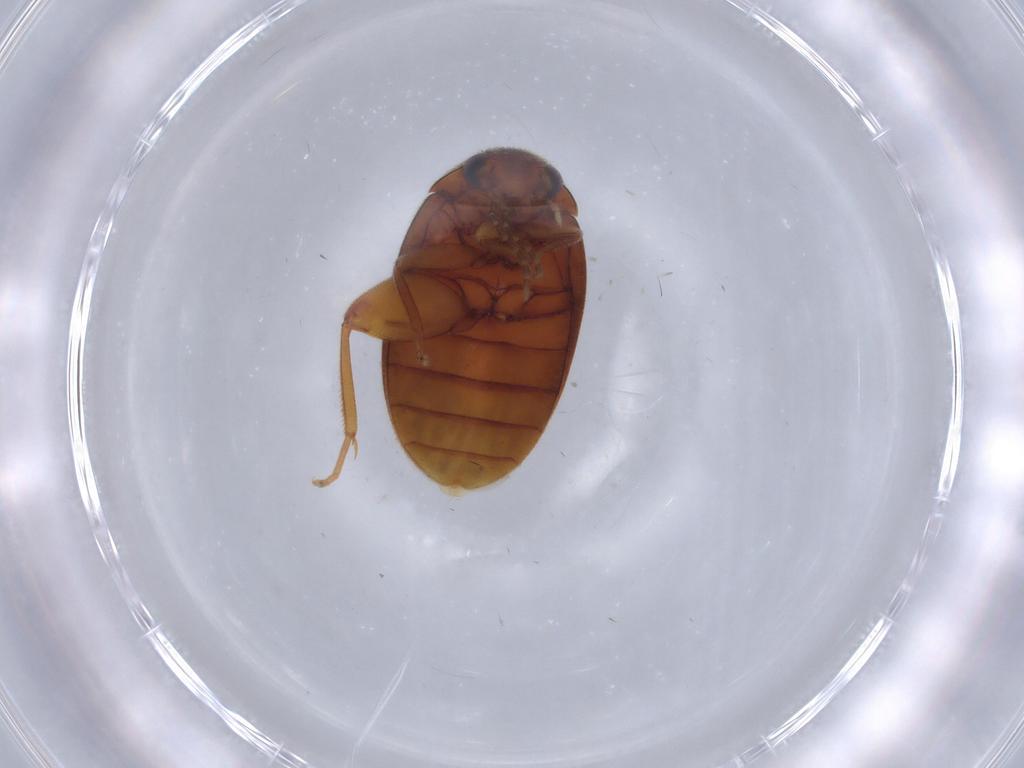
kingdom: Animalia
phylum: Arthropoda
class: Insecta
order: Coleoptera
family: Scirtidae
